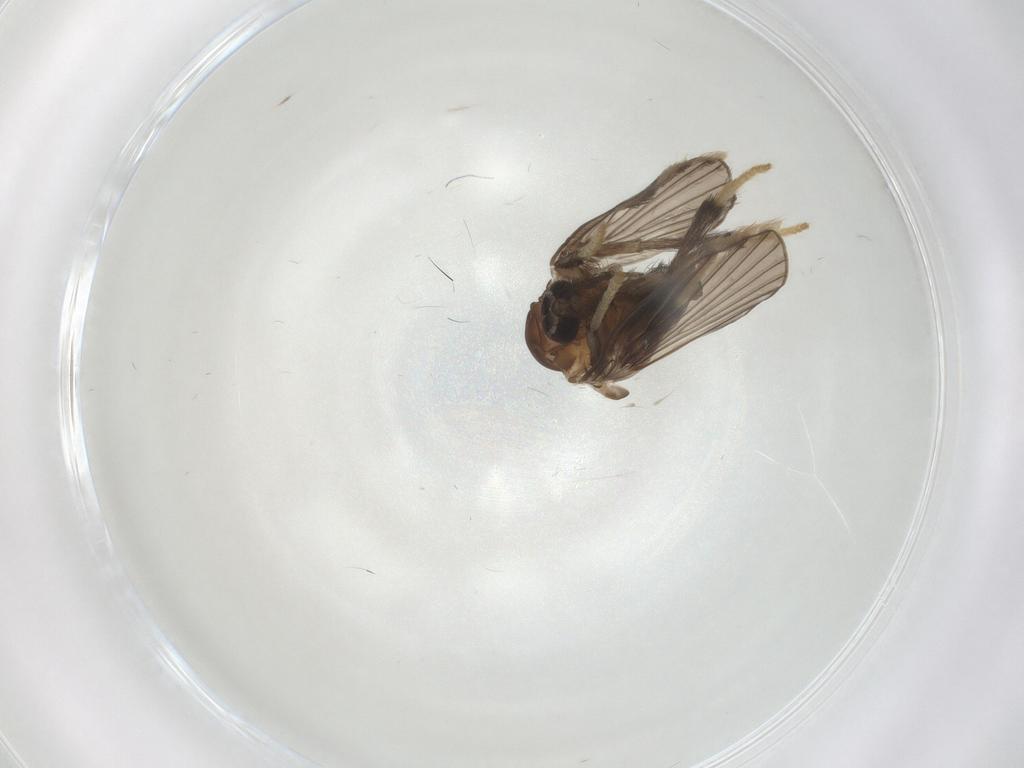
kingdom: Animalia
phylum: Arthropoda
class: Insecta
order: Diptera
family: Psychodidae
